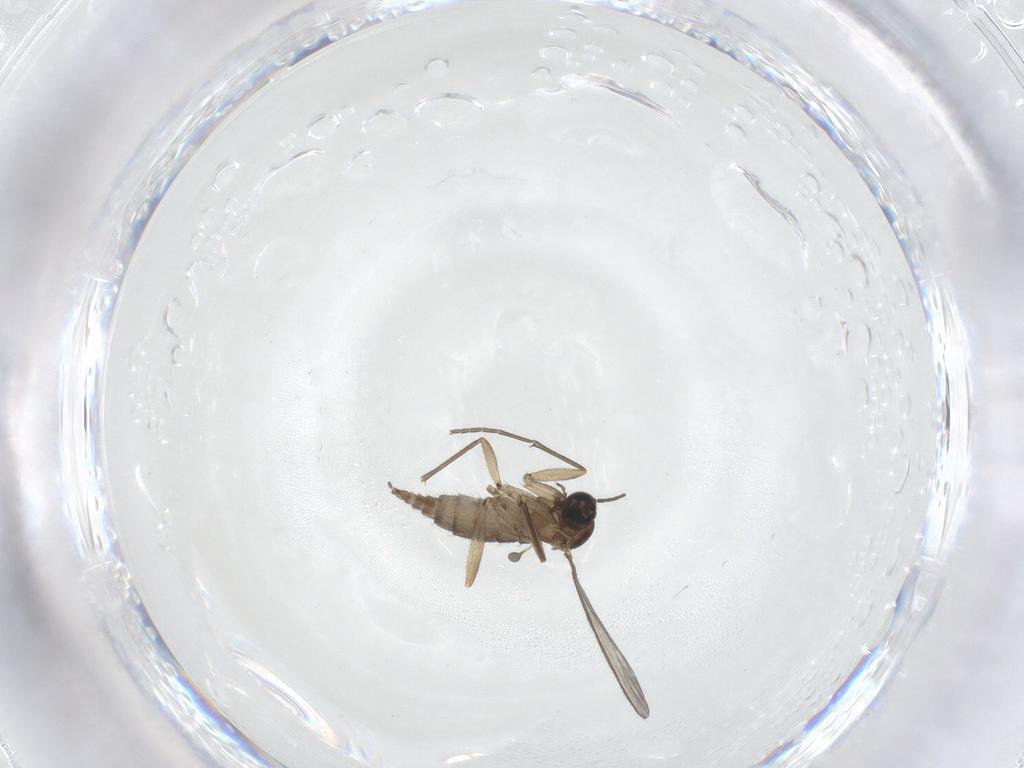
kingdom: Animalia
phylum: Arthropoda
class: Insecta
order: Diptera
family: Sciaridae
